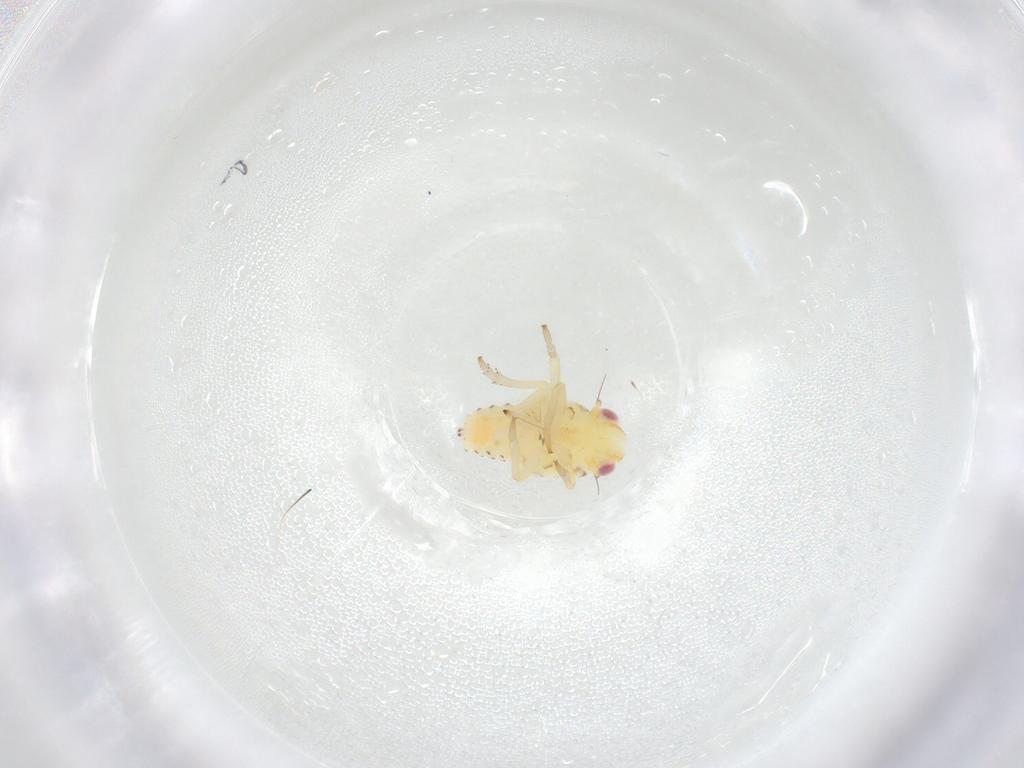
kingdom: Animalia
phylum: Arthropoda
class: Insecta
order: Hemiptera
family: Tropiduchidae
